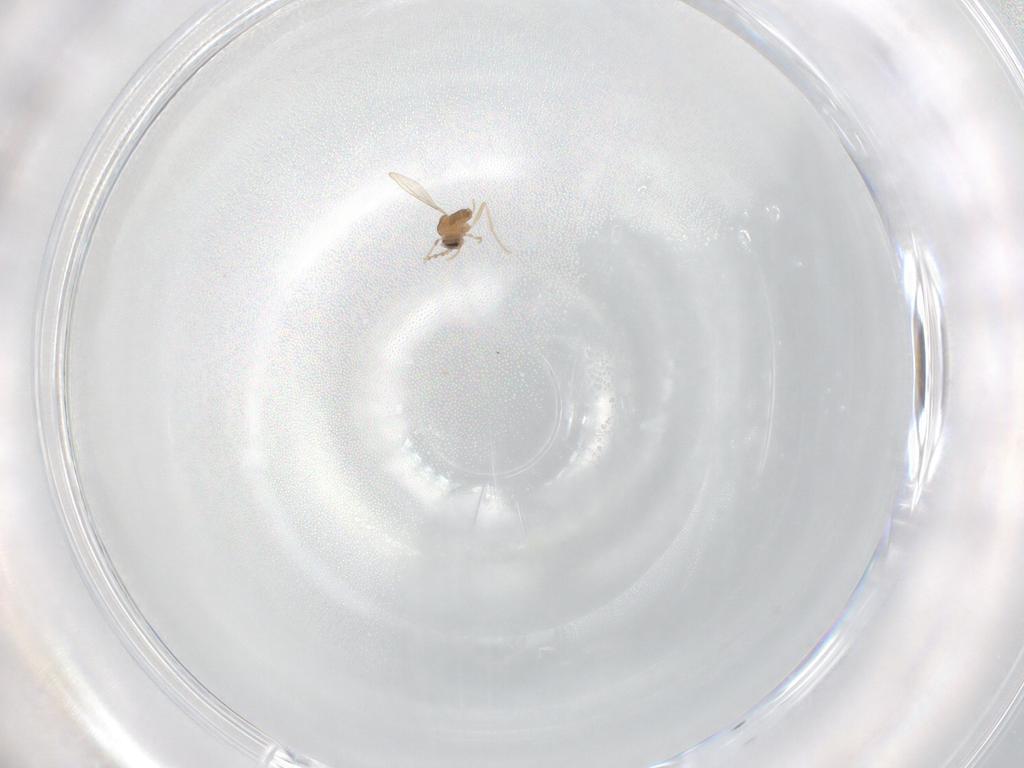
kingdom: Animalia
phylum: Arthropoda
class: Insecta
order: Diptera
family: Cecidomyiidae
